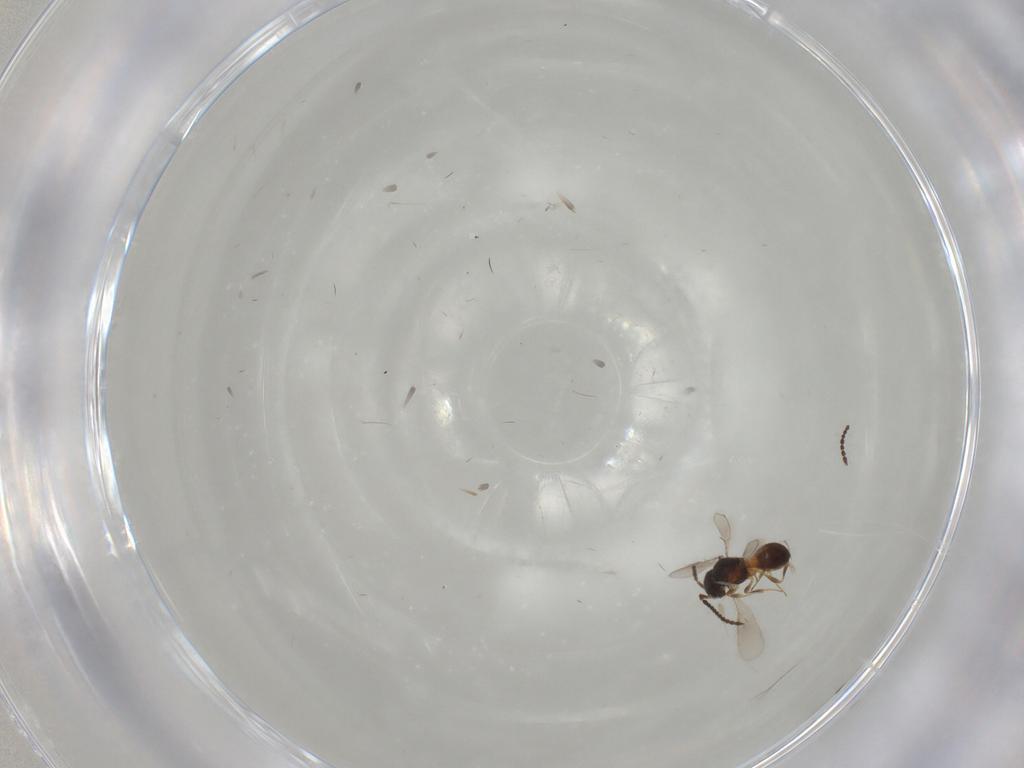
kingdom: Animalia
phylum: Arthropoda
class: Insecta
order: Hymenoptera
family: Scelionidae
